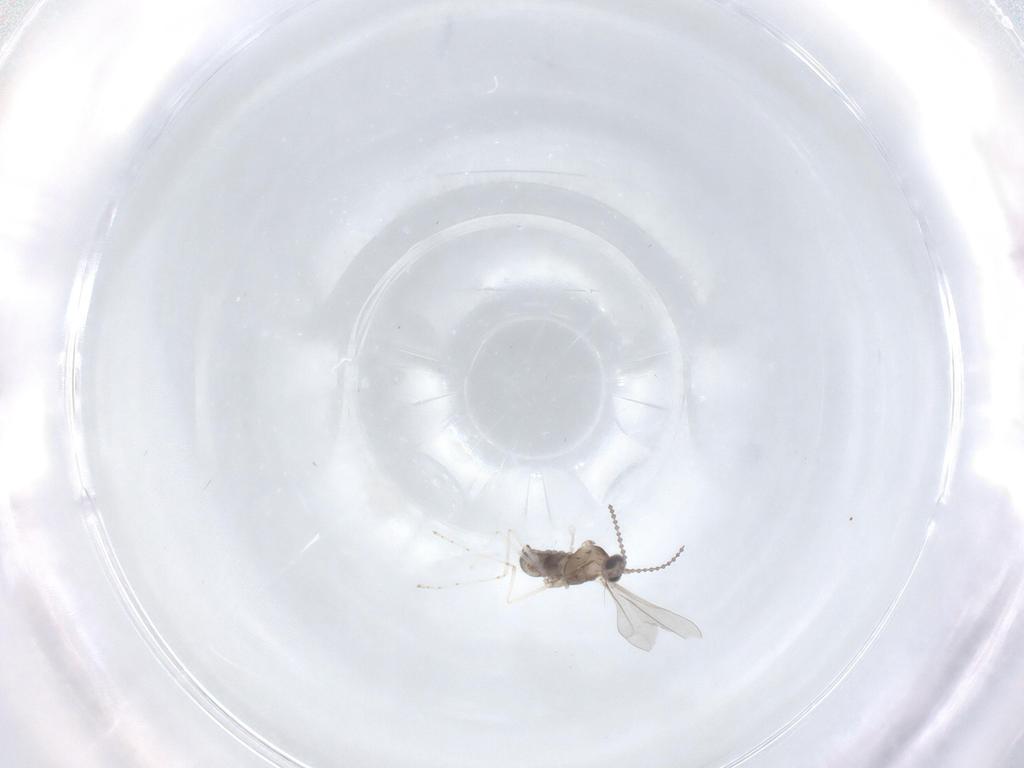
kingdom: Animalia
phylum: Arthropoda
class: Insecta
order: Diptera
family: Cecidomyiidae
